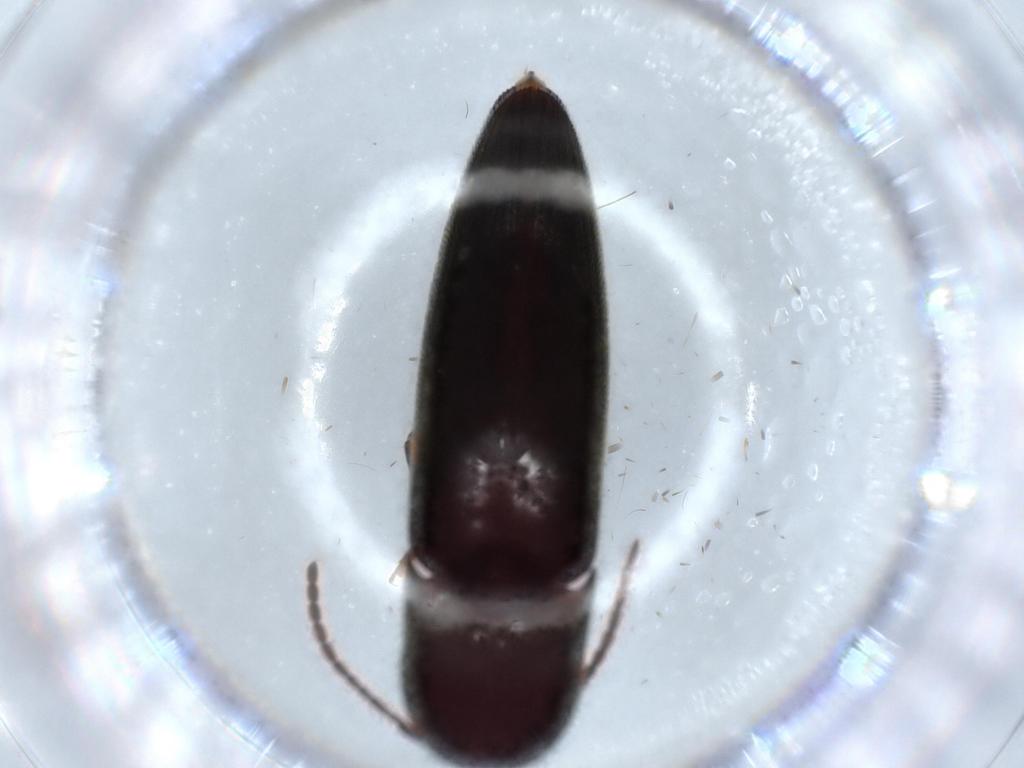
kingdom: Animalia
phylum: Arthropoda
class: Insecta
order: Coleoptera
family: Eucnemidae
